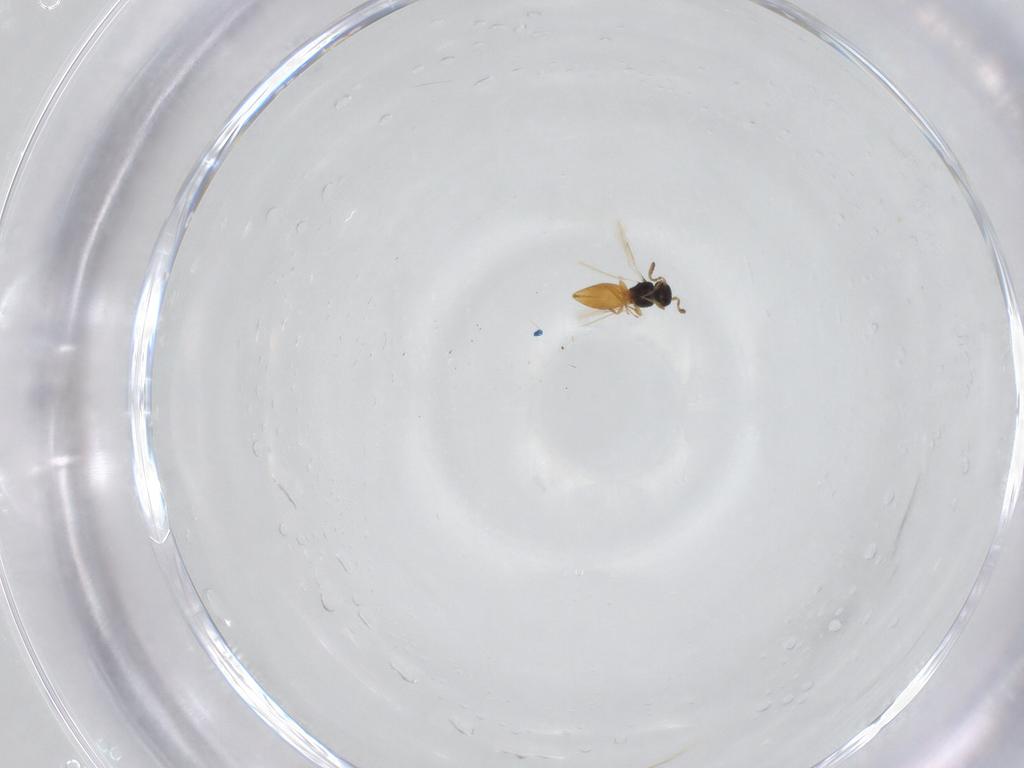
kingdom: Animalia
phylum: Arthropoda
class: Insecta
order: Hymenoptera
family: Scelionidae
